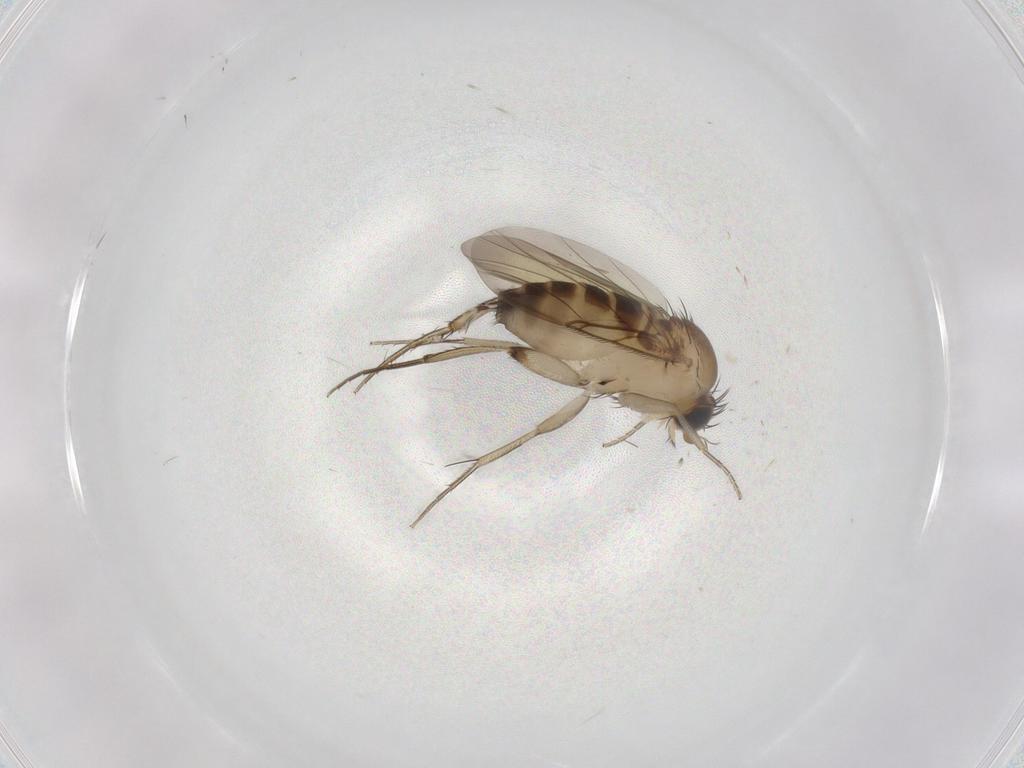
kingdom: Animalia
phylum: Arthropoda
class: Insecta
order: Diptera
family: Phoridae
